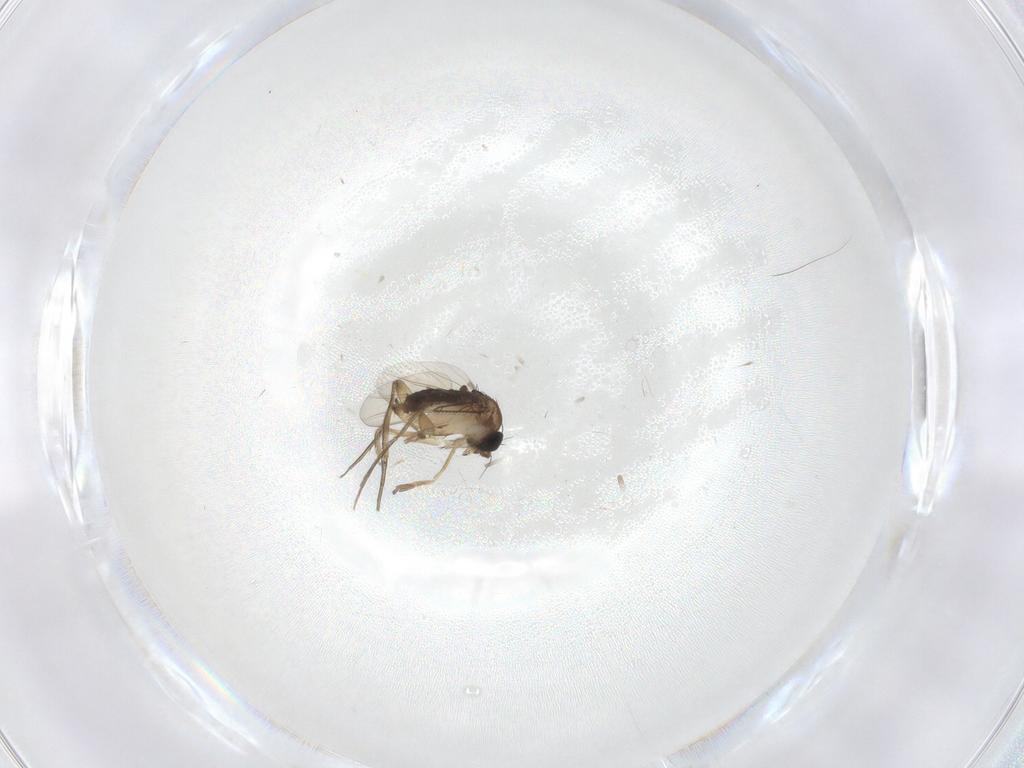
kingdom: Animalia
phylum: Arthropoda
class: Insecta
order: Diptera
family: Phoridae
